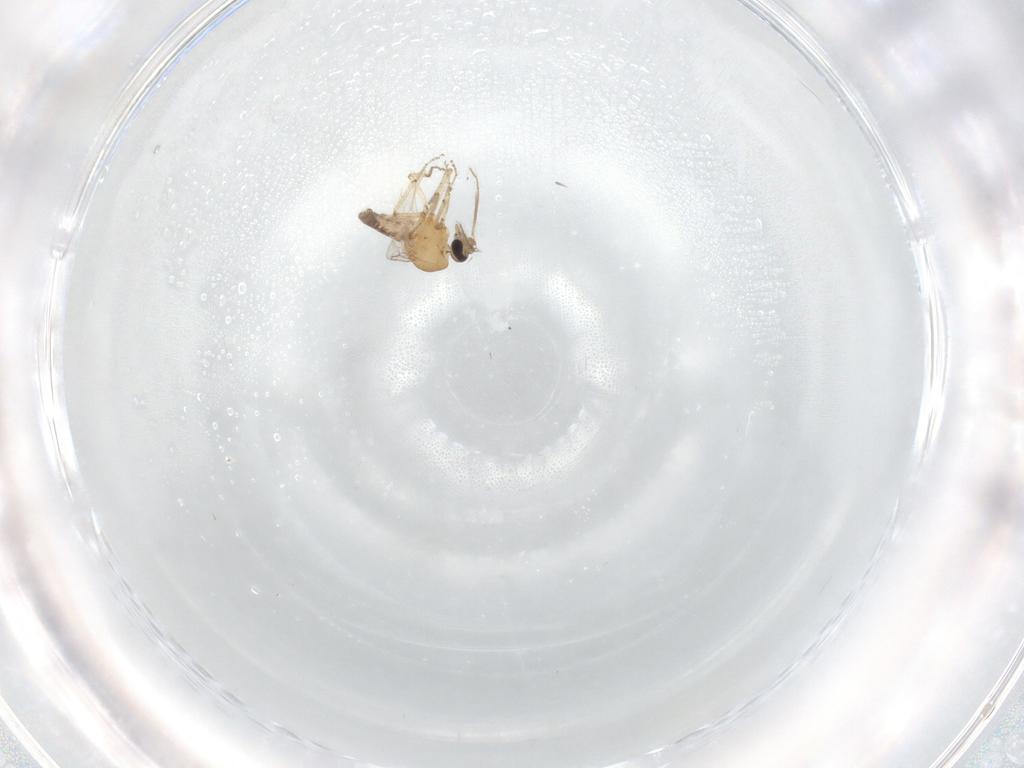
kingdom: Animalia
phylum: Arthropoda
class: Insecta
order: Diptera
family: Ceratopogonidae
